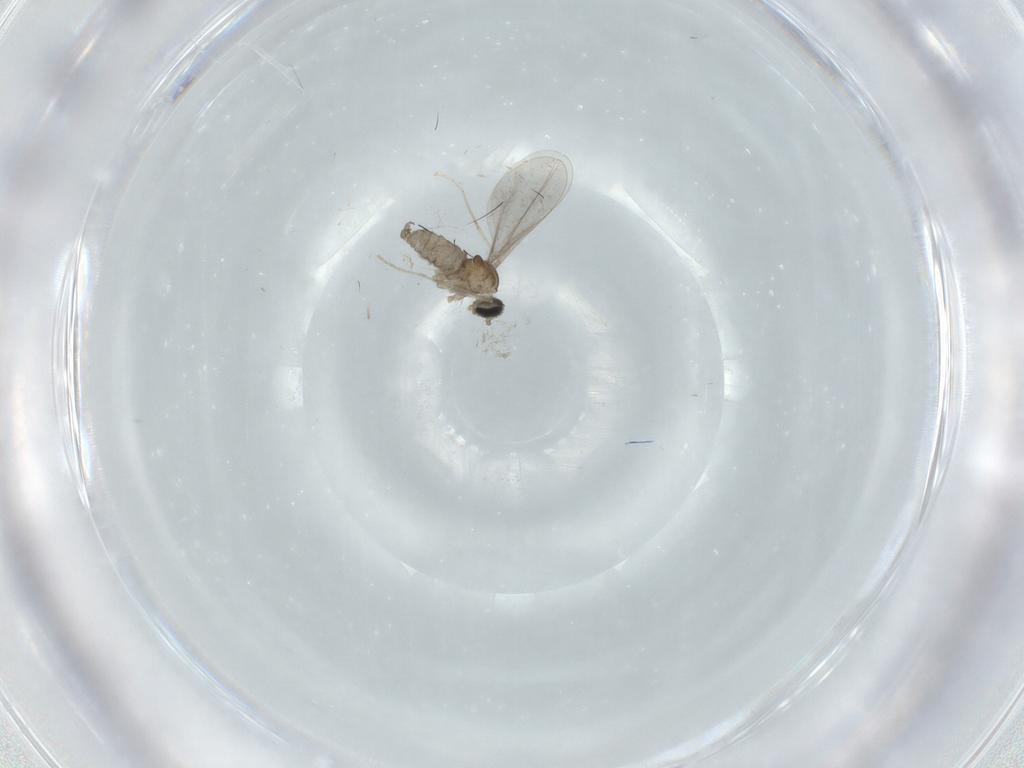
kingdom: Animalia
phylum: Arthropoda
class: Insecta
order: Diptera
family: Cecidomyiidae
